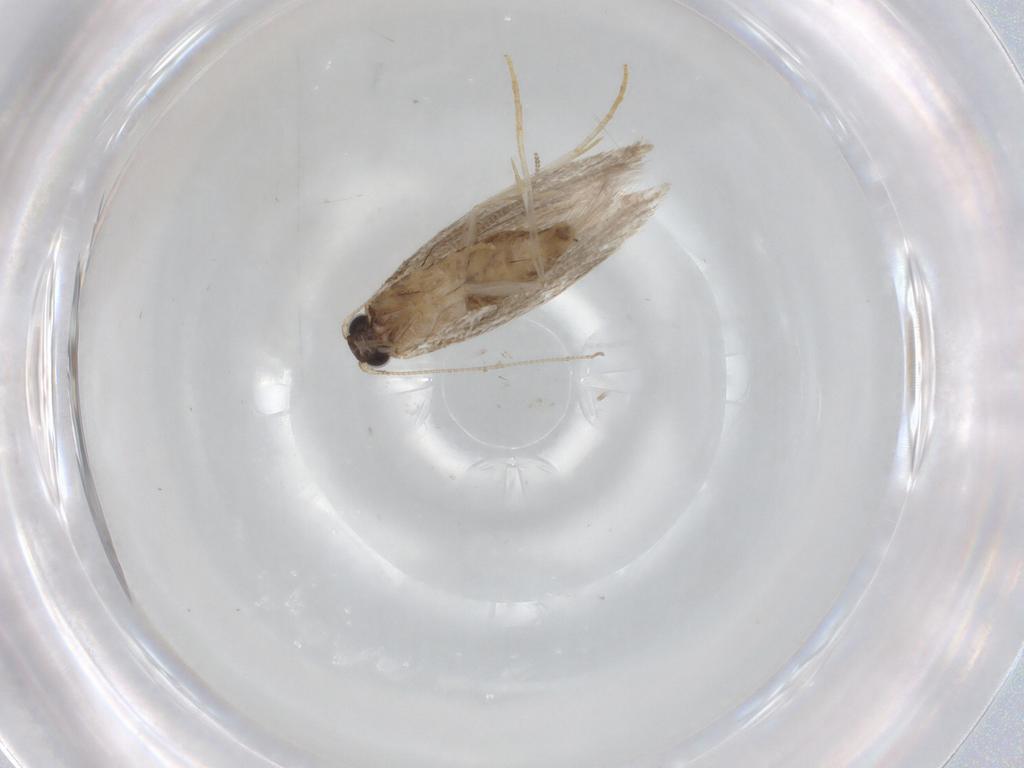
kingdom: Animalia
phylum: Arthropoda
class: Insecta
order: Lepidoptera
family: Tineidae
